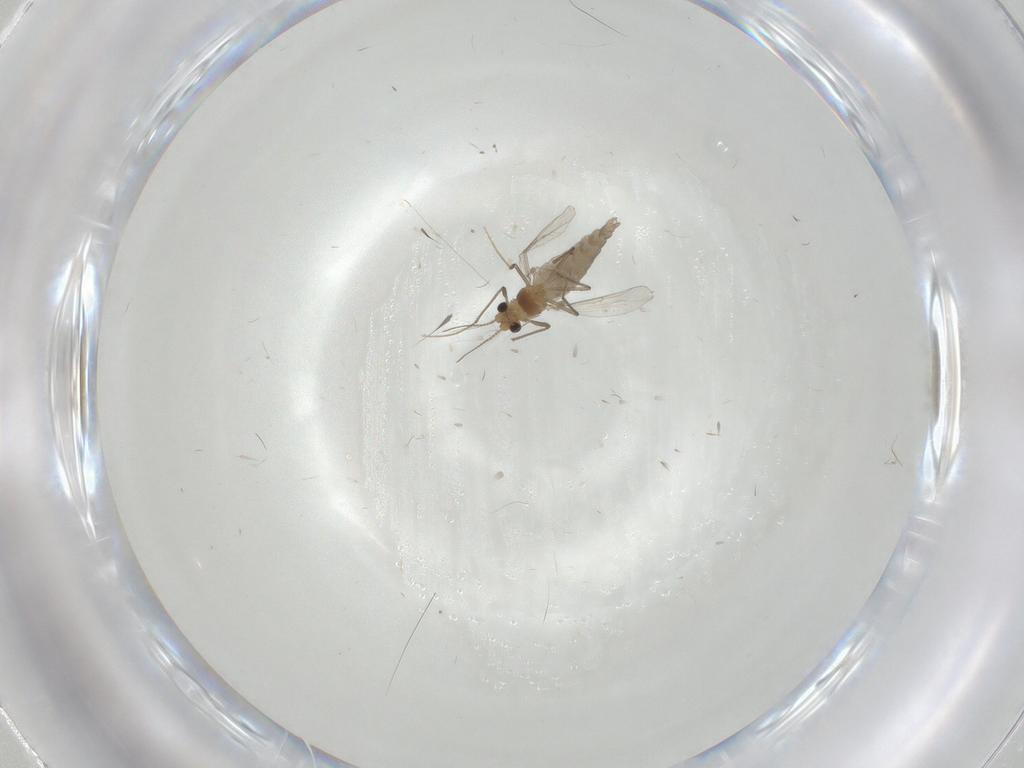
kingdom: Animalia
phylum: Arthropoda
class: Insecta
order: Diptera
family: Chironomidae
